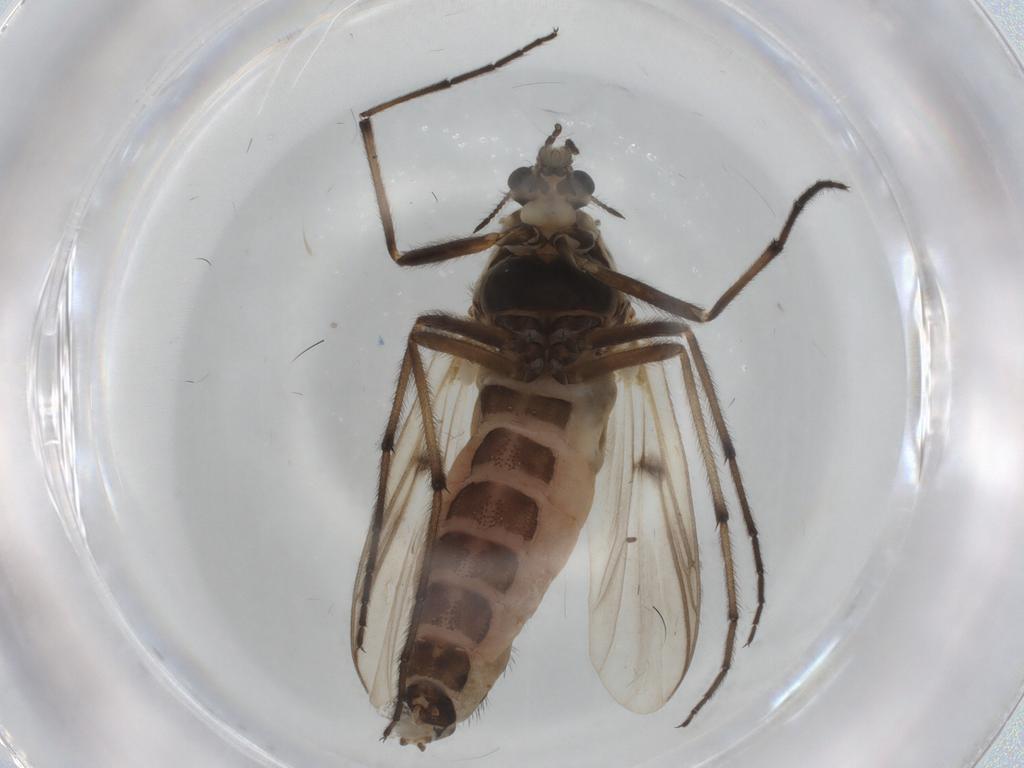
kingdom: Animalia
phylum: Arthropoda
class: Insecta
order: Diptera
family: Chironomidae
